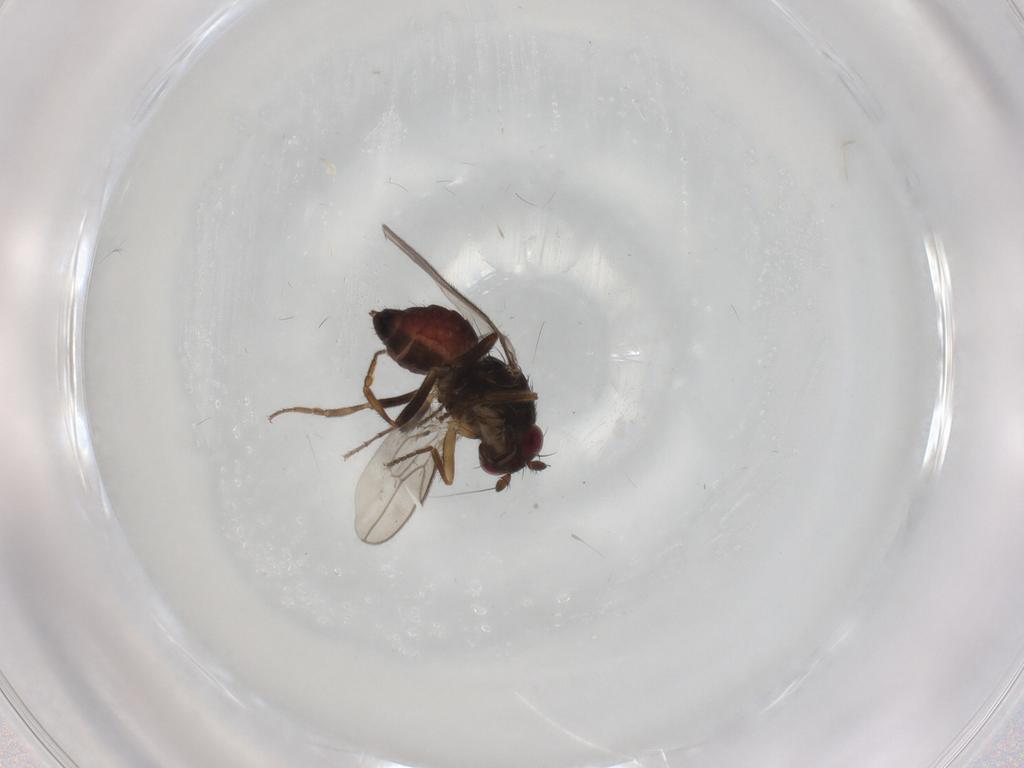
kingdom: Animalia
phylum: Arthropoda
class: Insecta
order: Diptera
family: Sphaeroceridae
